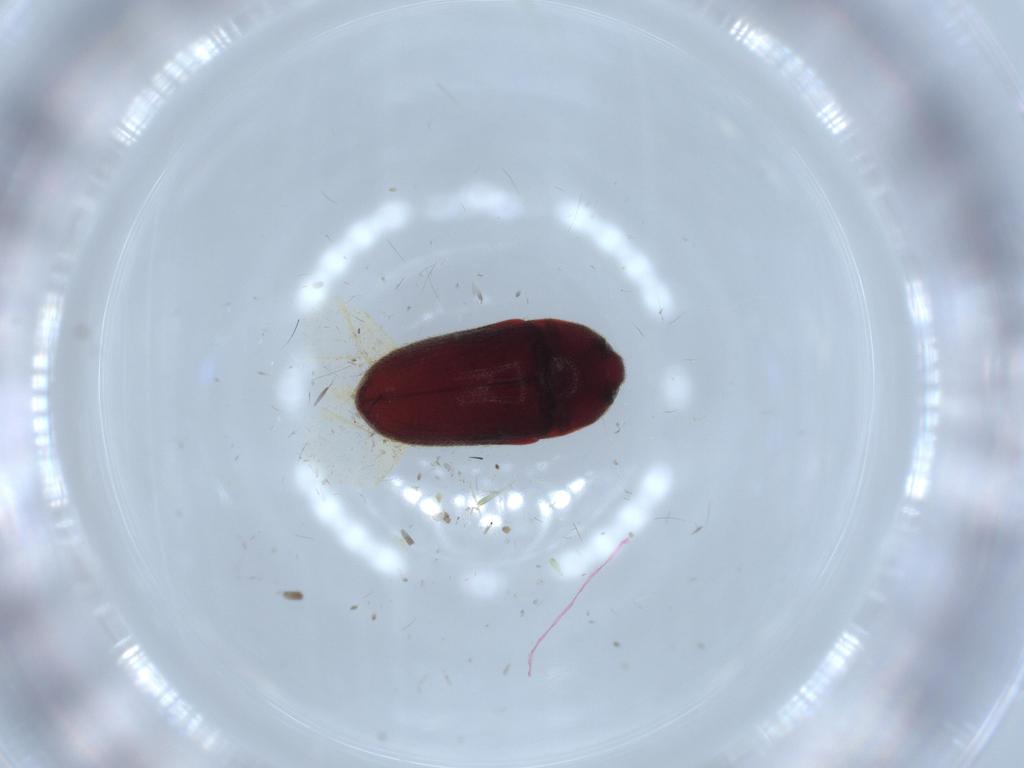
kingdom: Animalia
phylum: Arthropoda
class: Insecta
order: Coleoptera
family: Throscidae
